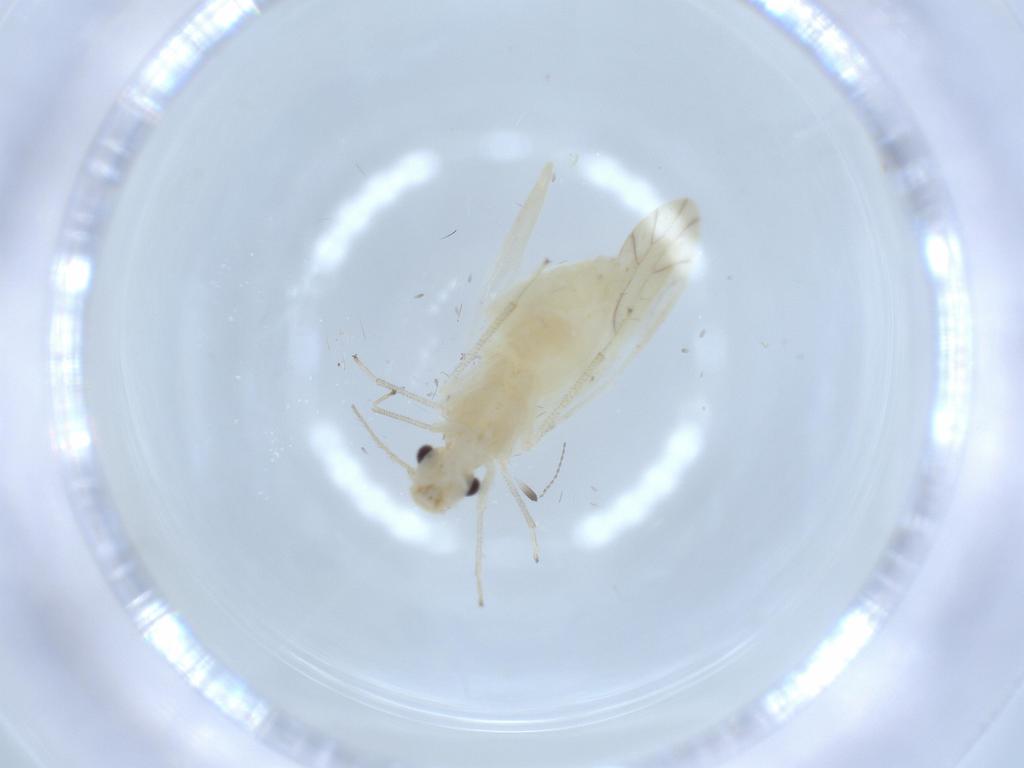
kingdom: Animalia
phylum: Arthropoda
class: Insecta
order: Psocodea
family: Caeciliusidae
